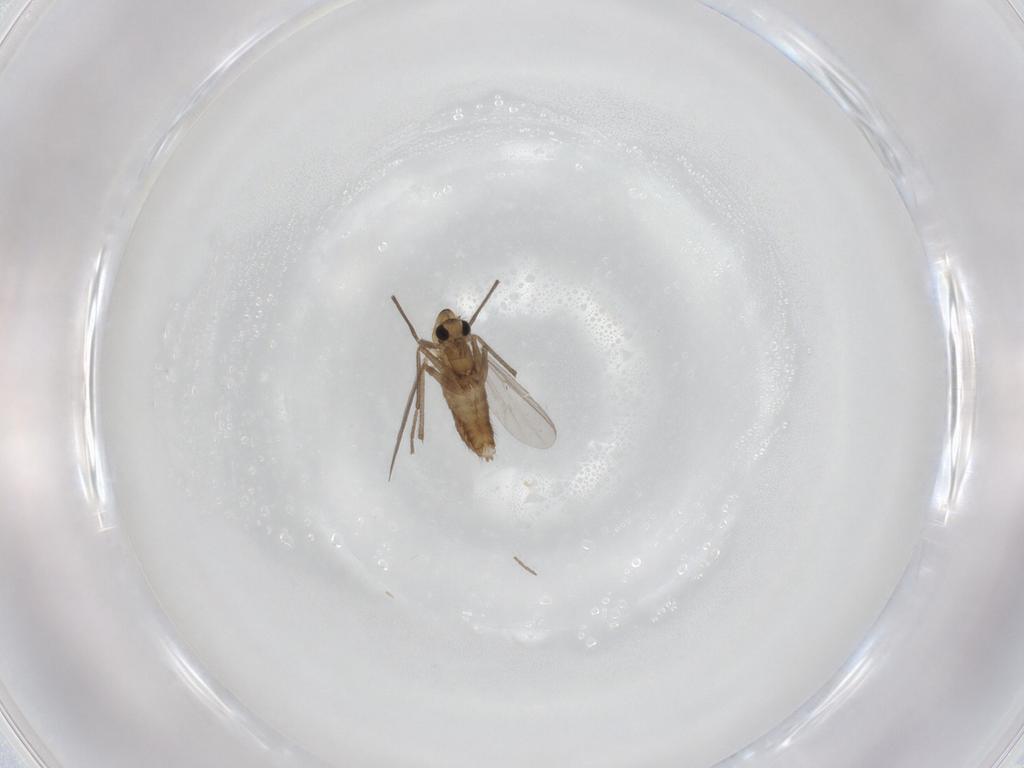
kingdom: Animalia
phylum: Arthropoda
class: Insecta
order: Diptera
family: Chironomidae
